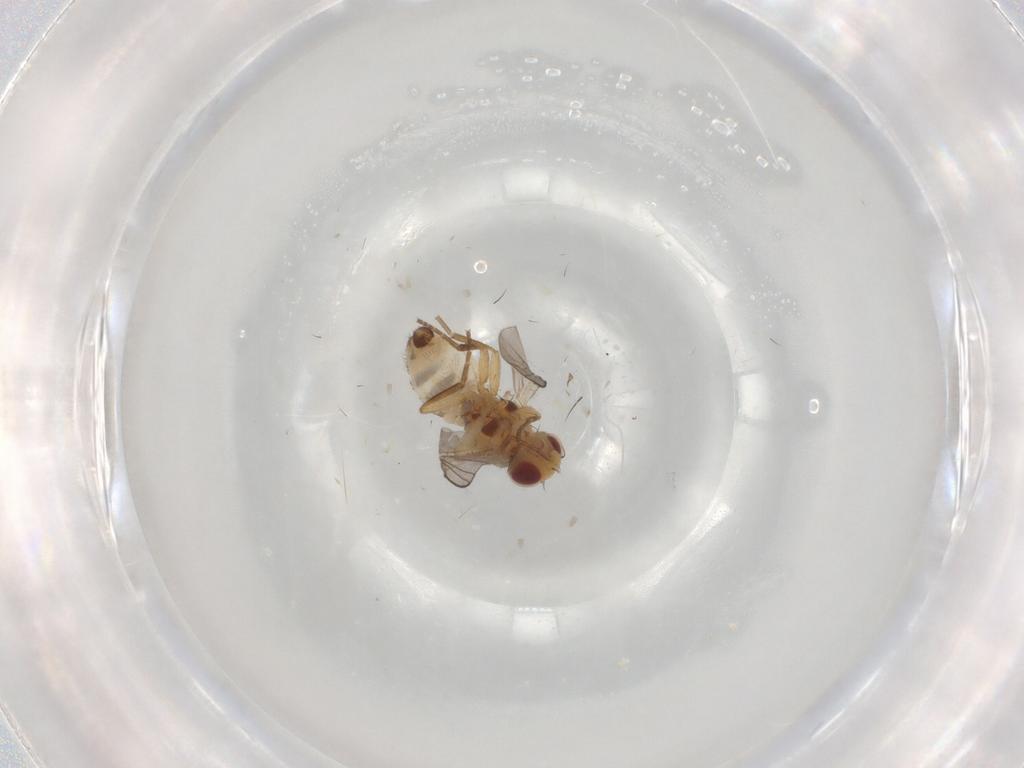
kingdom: Animalia
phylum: Arthropoda
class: Insecta
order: Diptera
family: Agromyzidae
